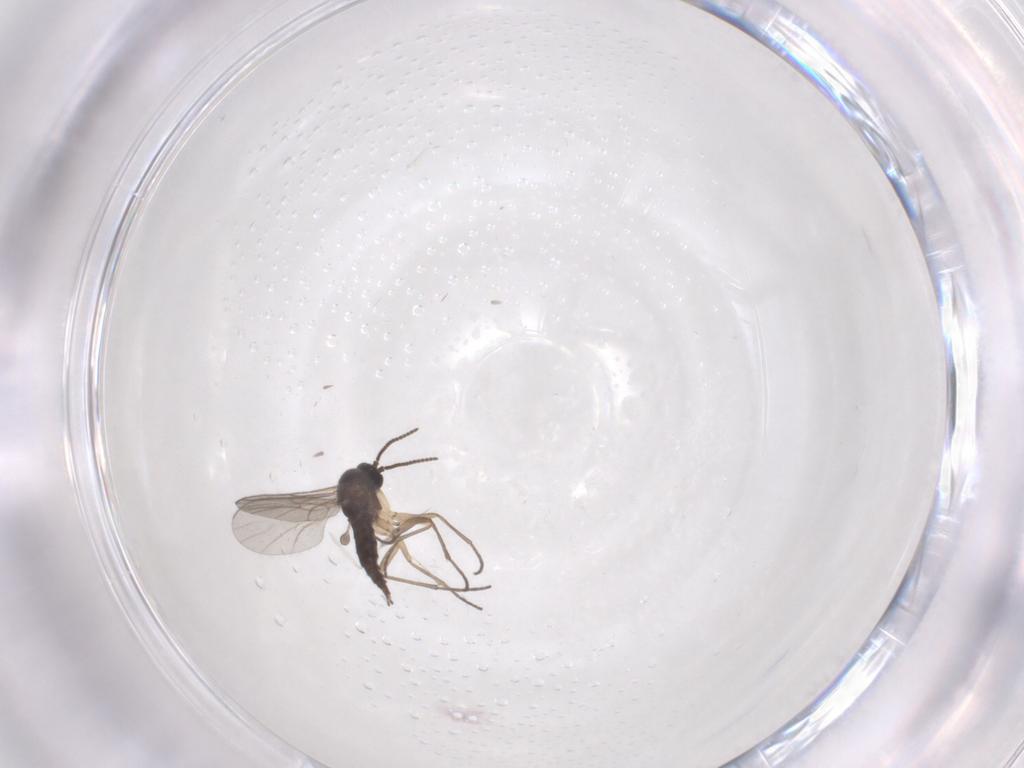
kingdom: Animalia
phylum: Arthropoda
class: Insecta
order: Diptera
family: Sciaridae
